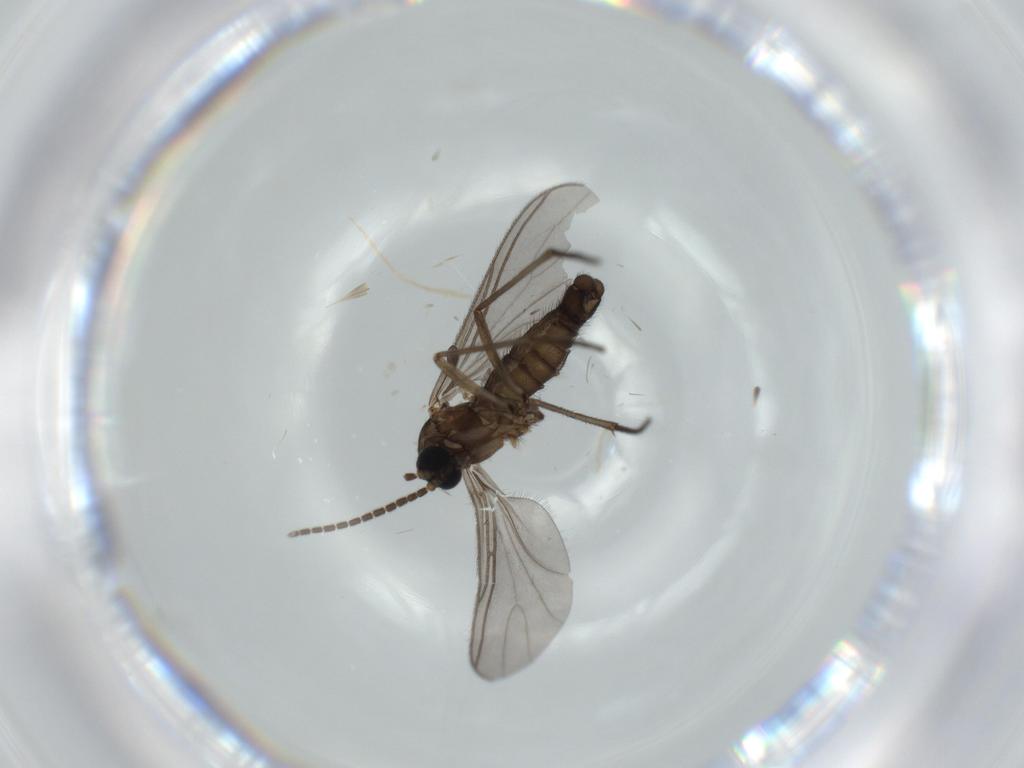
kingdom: Animalia
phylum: Arthropoda
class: Insecta
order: Diptera
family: Sciaridae
